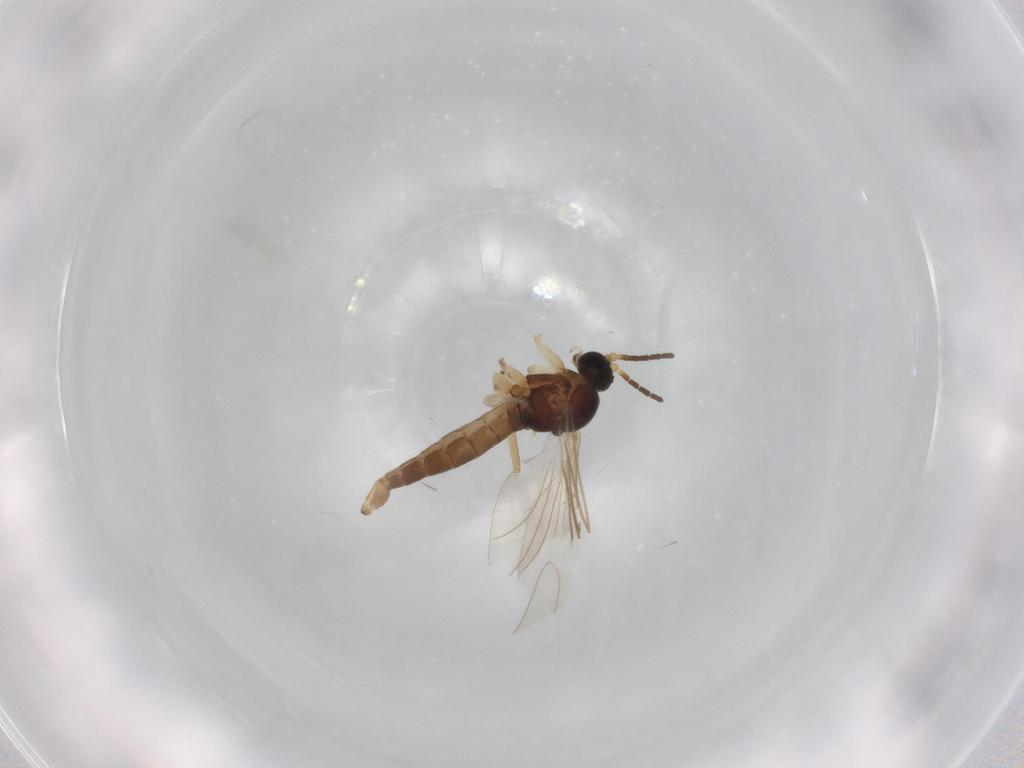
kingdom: Animalia
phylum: Arthropoda
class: Insecta
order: Diptera
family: Sciaridae
